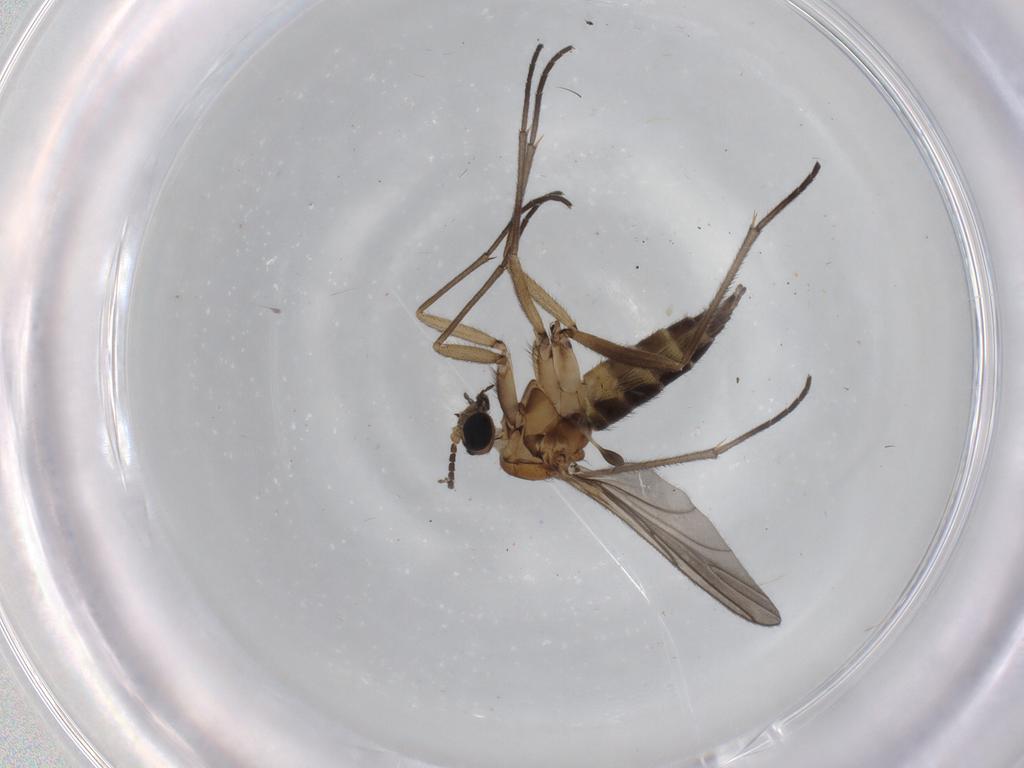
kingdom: Animalia
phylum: Arthropoda
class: Insecta
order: Diptera
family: Sciaridae
